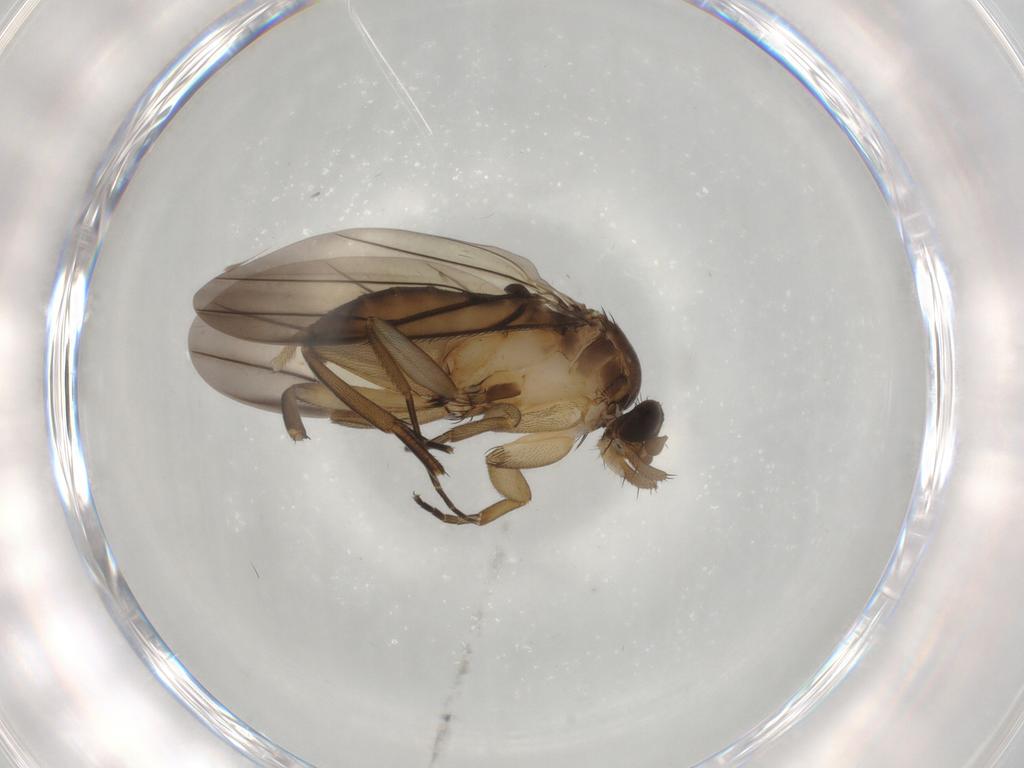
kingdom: Animalia
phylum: Arthropoda
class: Insecta
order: Diptera
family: Phoridae
